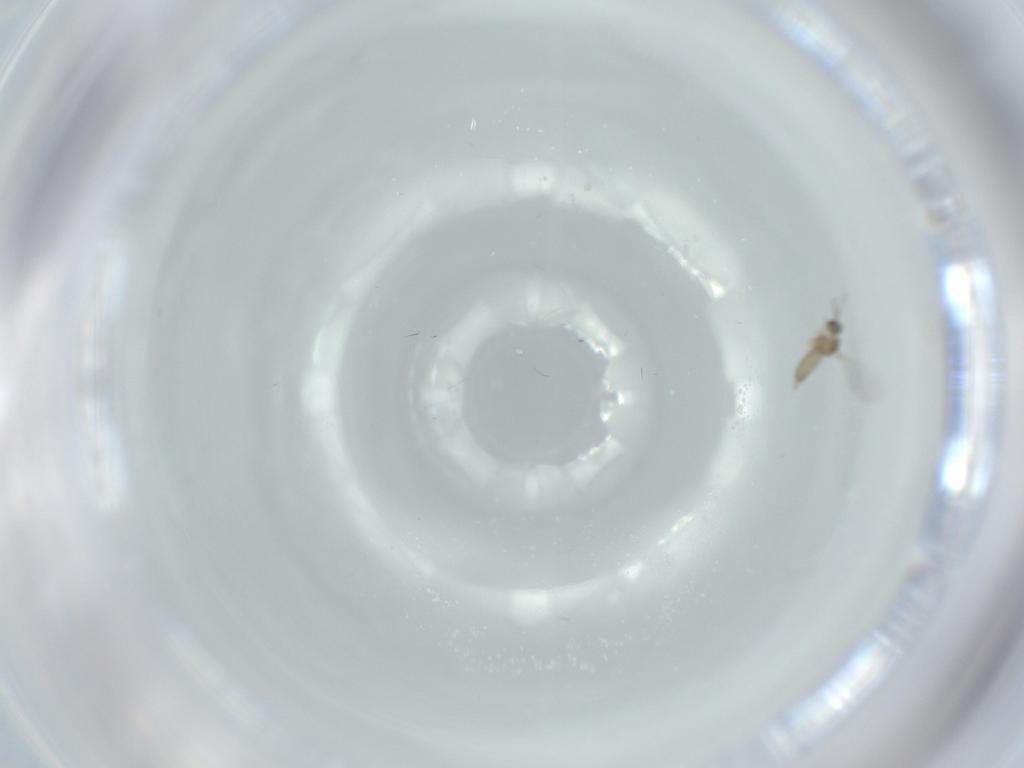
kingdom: Animalia
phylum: Arthropoda
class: Insecta
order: Diptera
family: Cecidomyiidae
